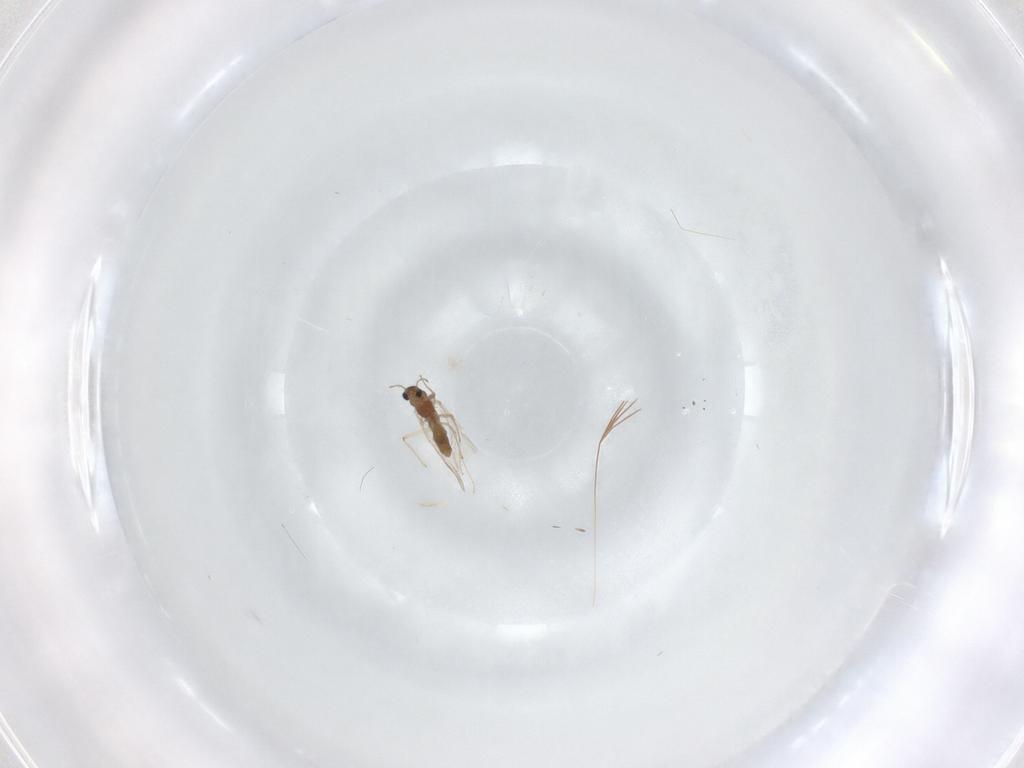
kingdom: Animalia
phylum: Arthropoda
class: Insecta
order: Diptera
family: Chironomidae
